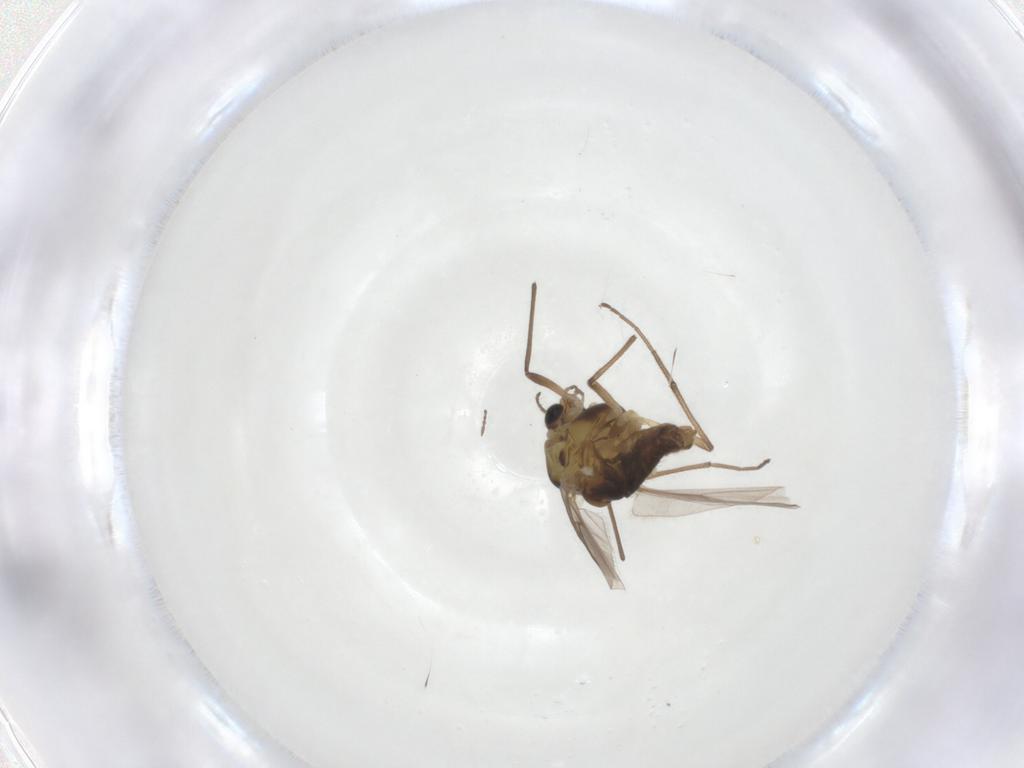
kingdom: Animalia
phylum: Arthropoda
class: Insecta
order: Diptera
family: Chironomidae
